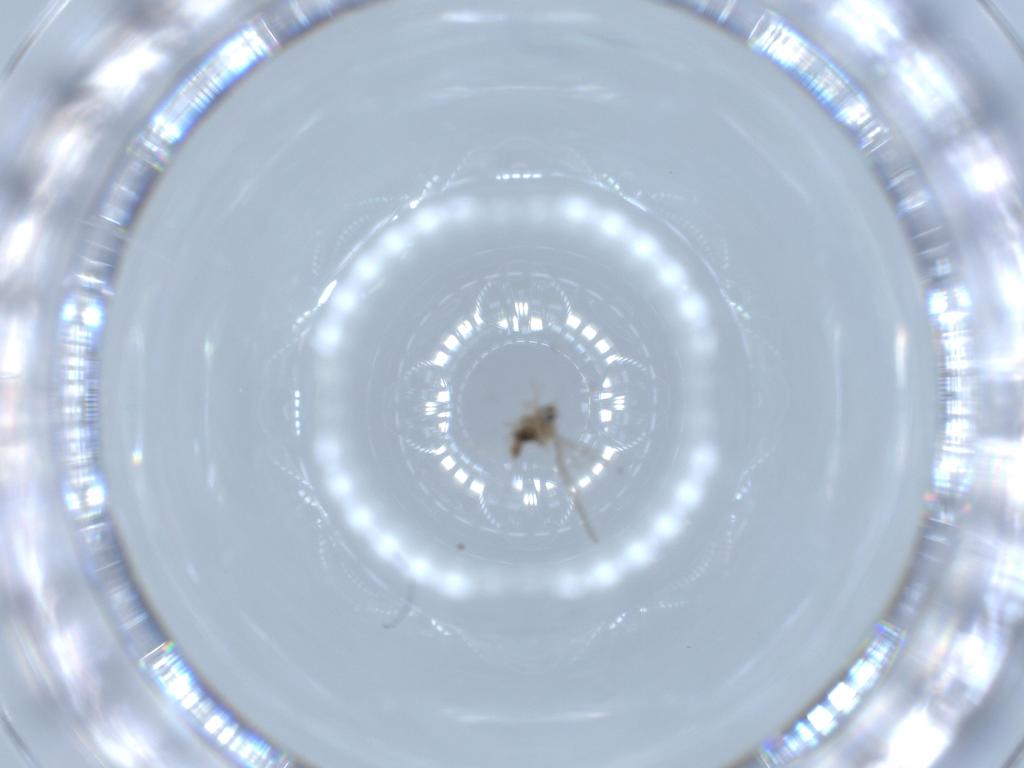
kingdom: Animalia
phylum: Arthropoda
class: Insecta
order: Diptera
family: Cecidomyiidae
